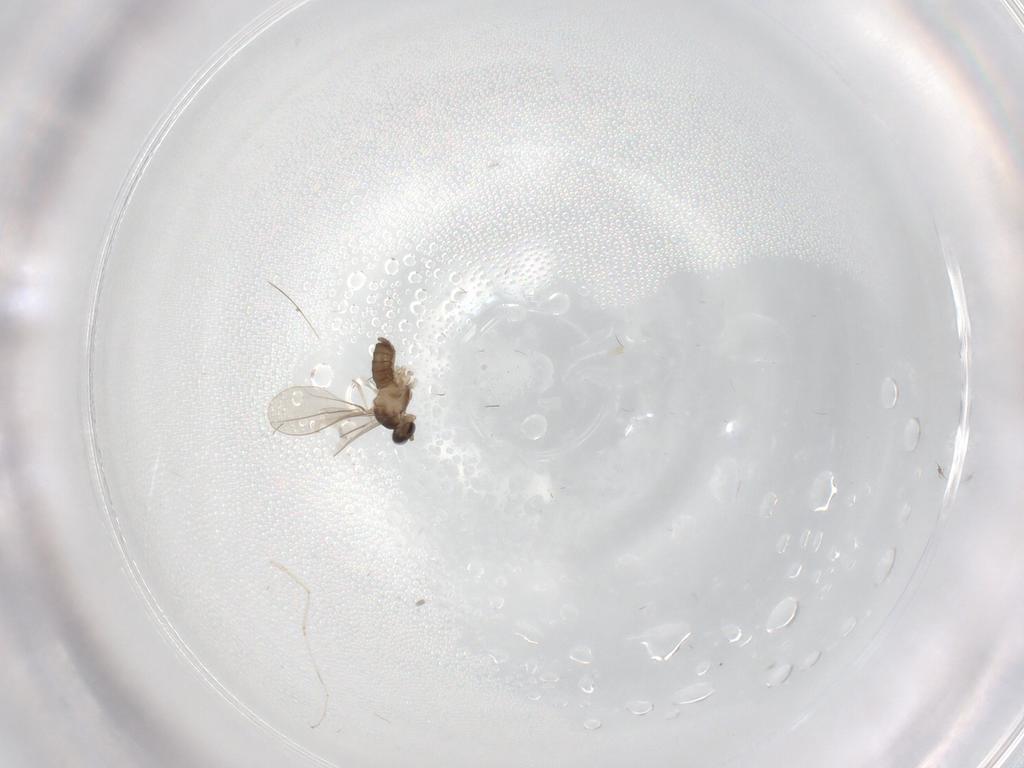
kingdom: Animalia
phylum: Arthropoda
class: Insecta
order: Diptera
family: Cecidomyiidae
